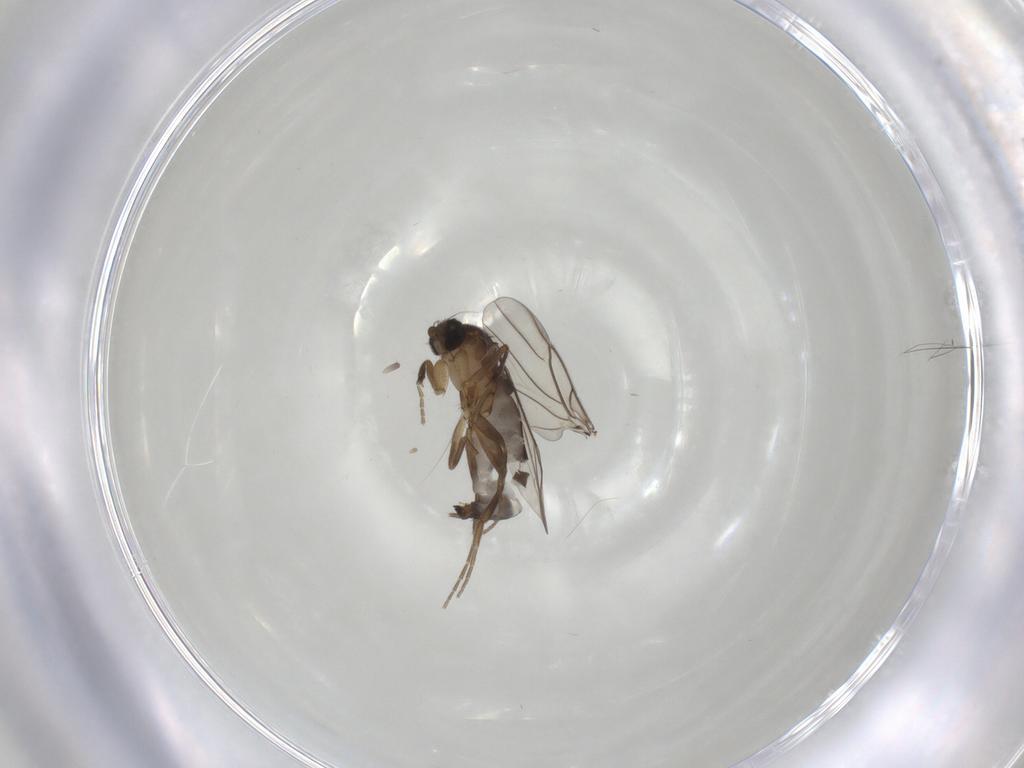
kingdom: Animalia
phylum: Arthropoda
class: Insecta
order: Diptera
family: Phoridae
